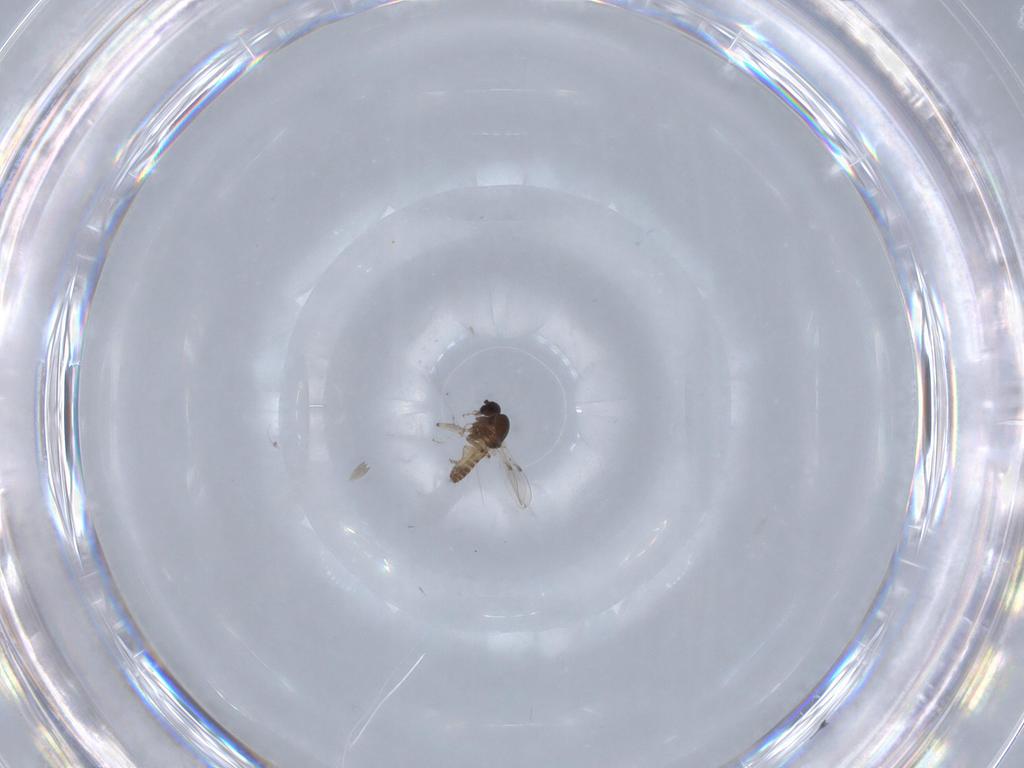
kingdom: Animalia
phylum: Arthropoda
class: Insecta
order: Diptera
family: Ceratopogonidae
